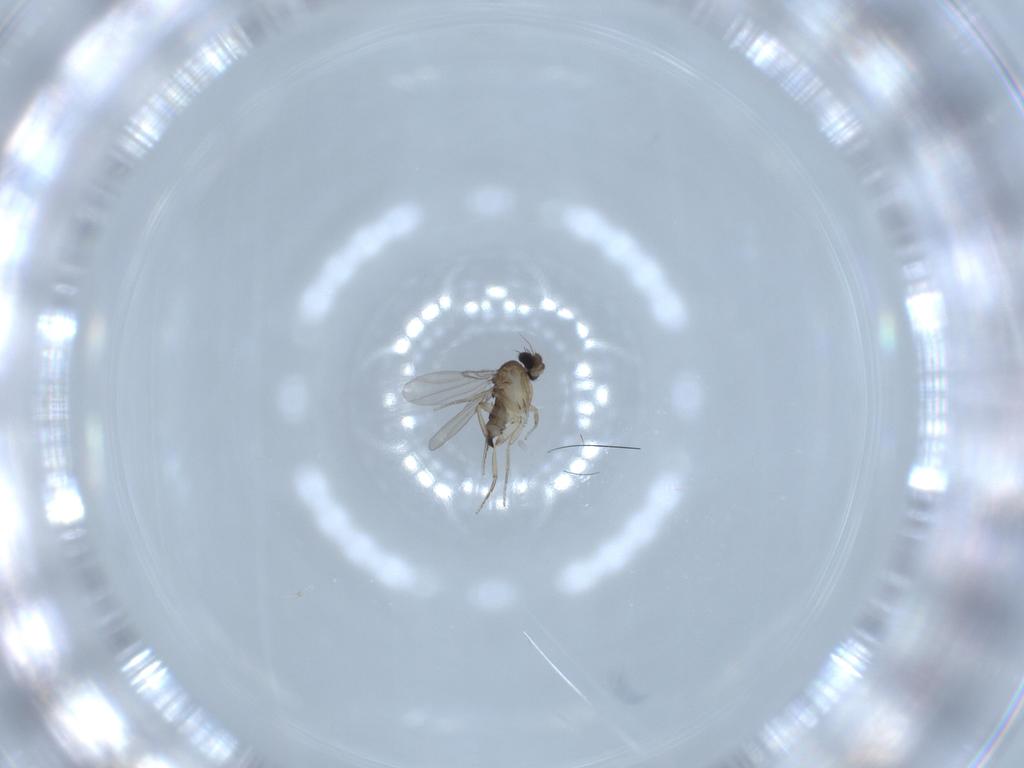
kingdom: Animalia
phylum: Arthropoda
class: Insecta
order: Diptera
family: Phoridae
